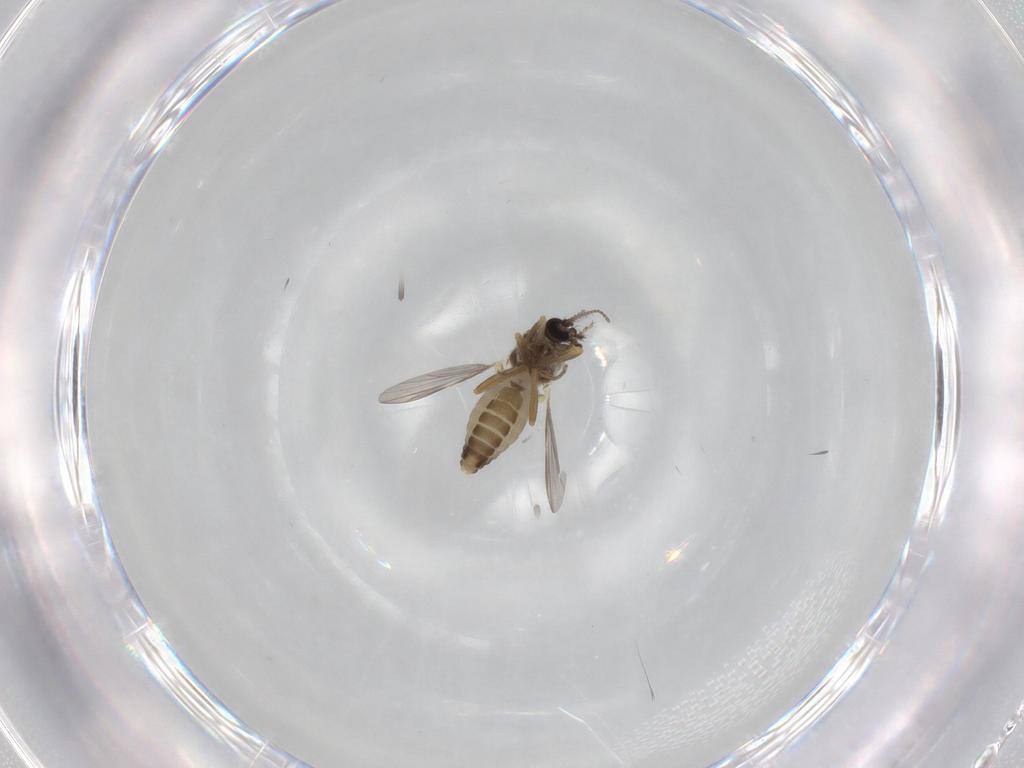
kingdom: Animalia
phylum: Arthropoda
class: Insecta
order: Diptera
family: Ceratopogonidae
